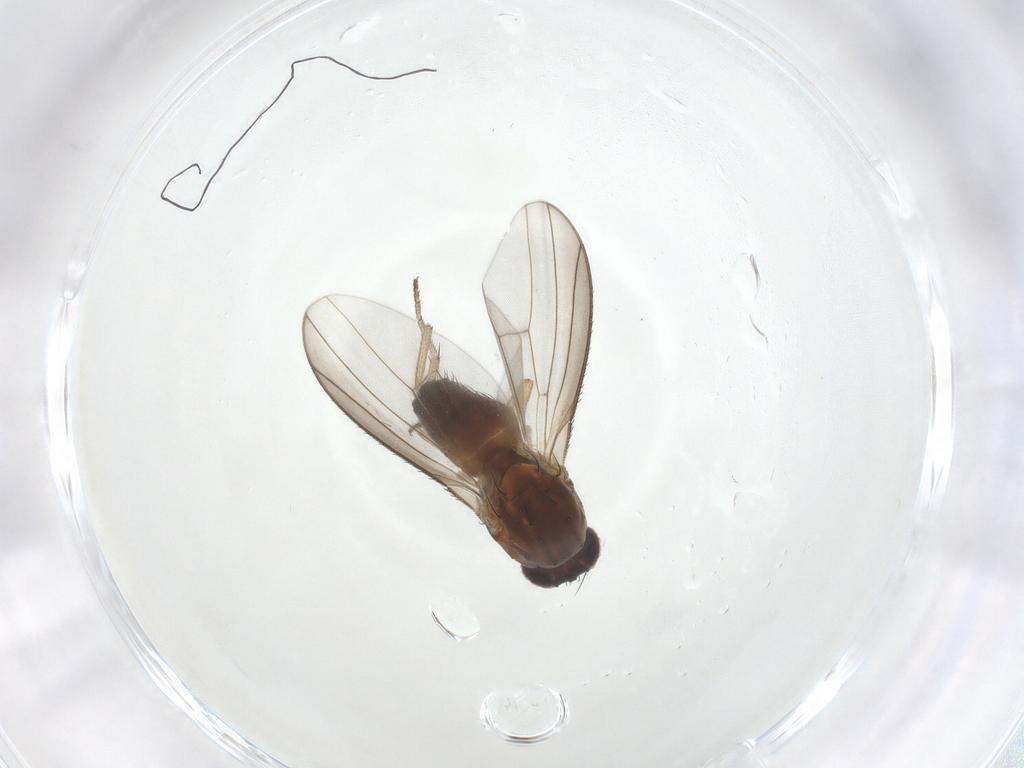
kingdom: Animalia
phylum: Arthropoda
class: Insecta
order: Diptera
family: Heleomyzidae
